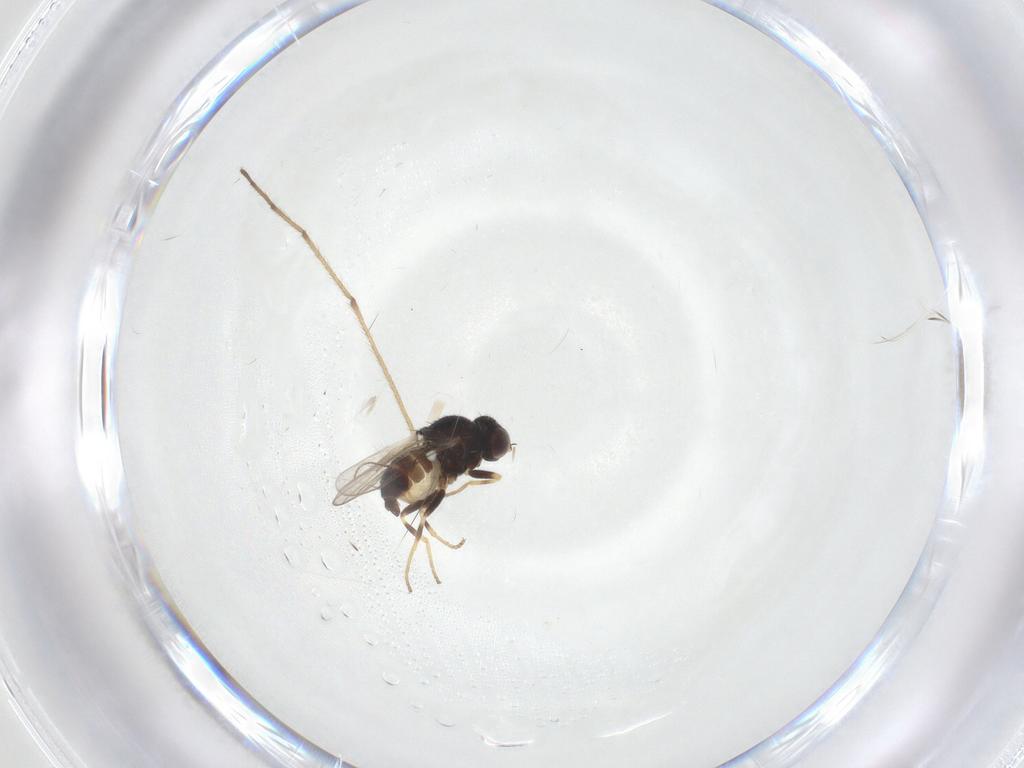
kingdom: Animalia
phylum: Arthropoda
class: Insecta
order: Diptera
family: Chloropidae
